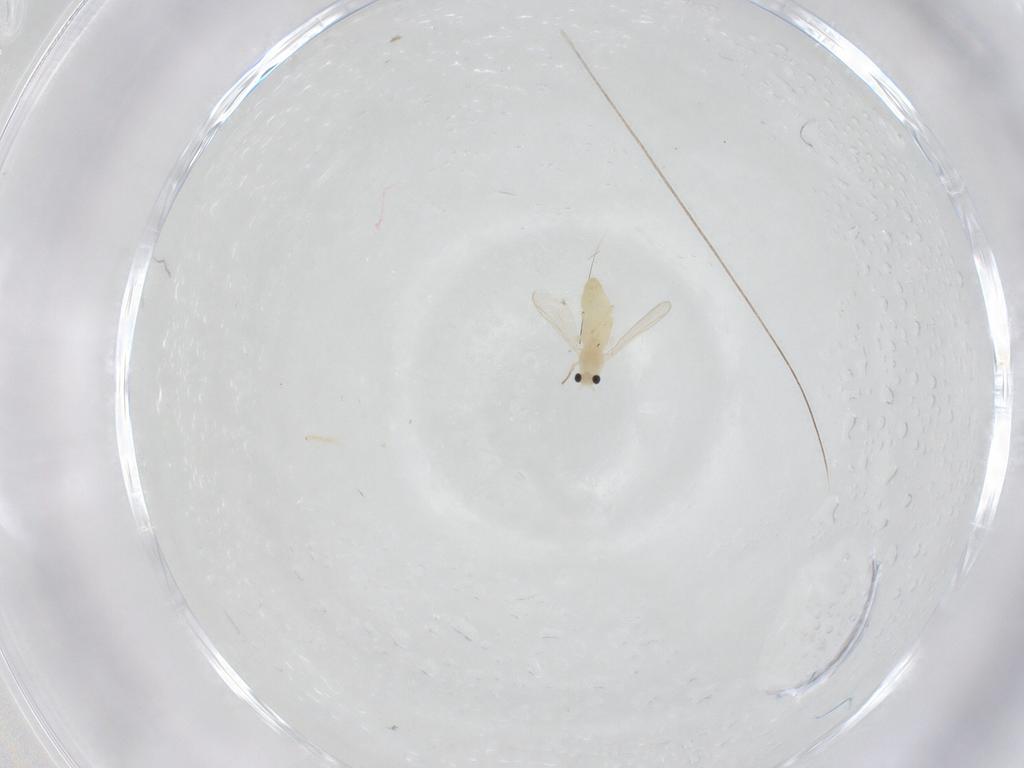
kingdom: Animalia
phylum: Arthropoda
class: Insecta
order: Diptera
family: Chironomidae
